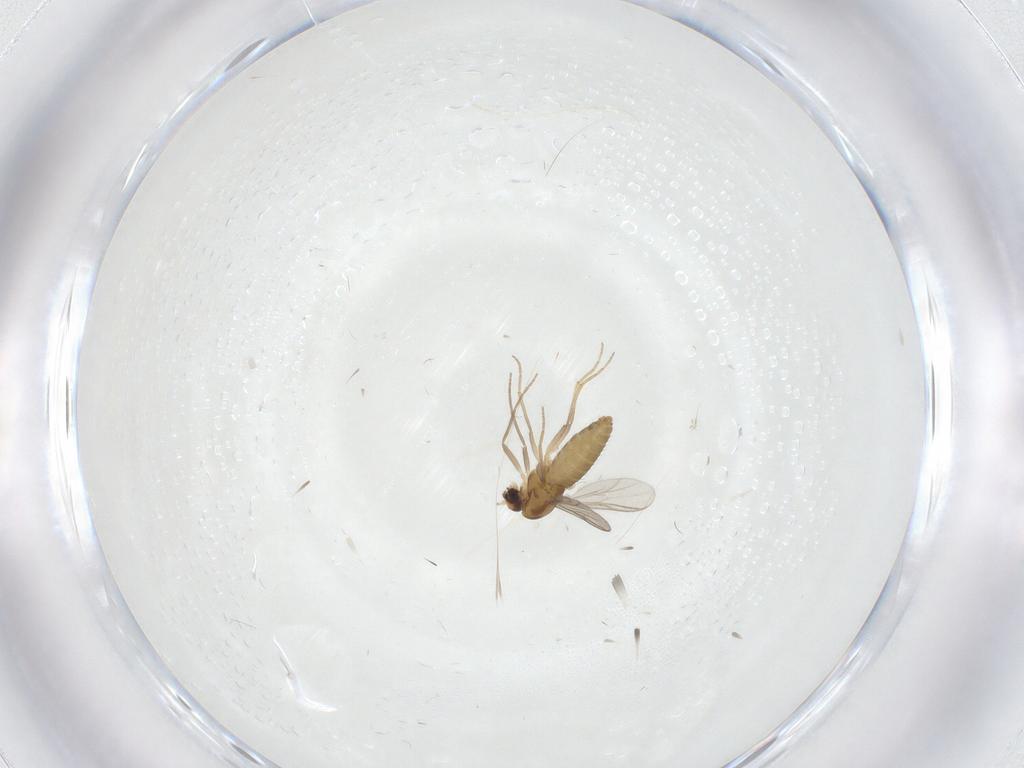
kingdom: Animalia
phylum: Arthropoda
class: Insecta
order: Diptera
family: Chironomidae
